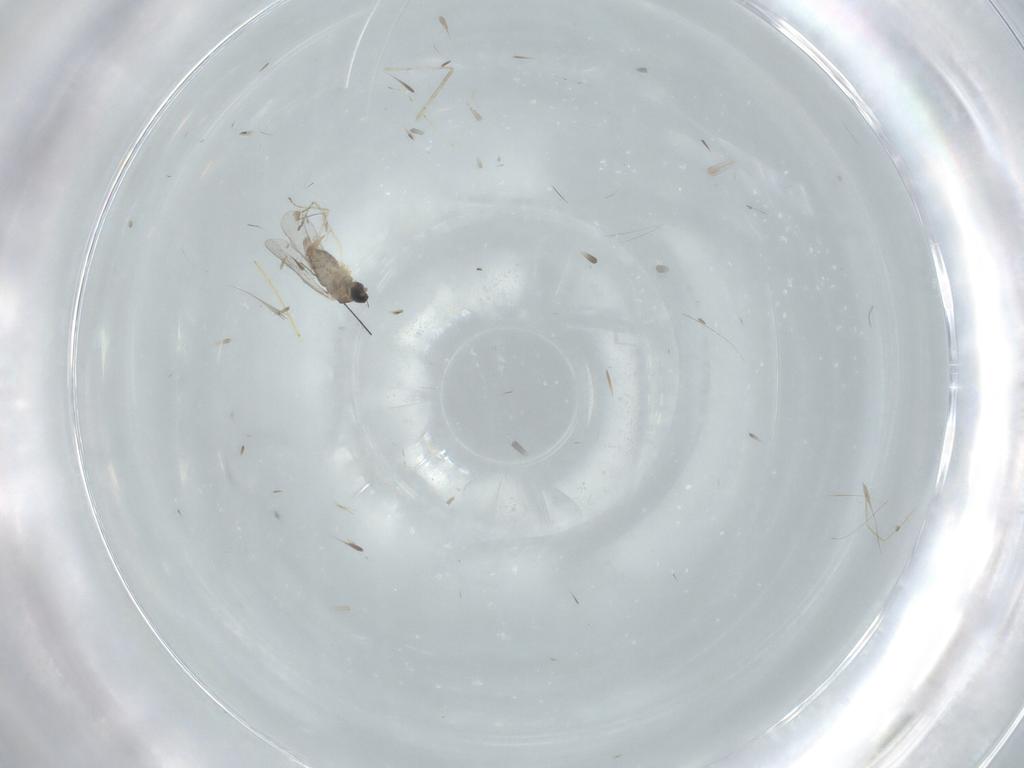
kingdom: Animalia
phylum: Arthropoda
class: Insecta
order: Diptera
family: Cecidomyiidae
